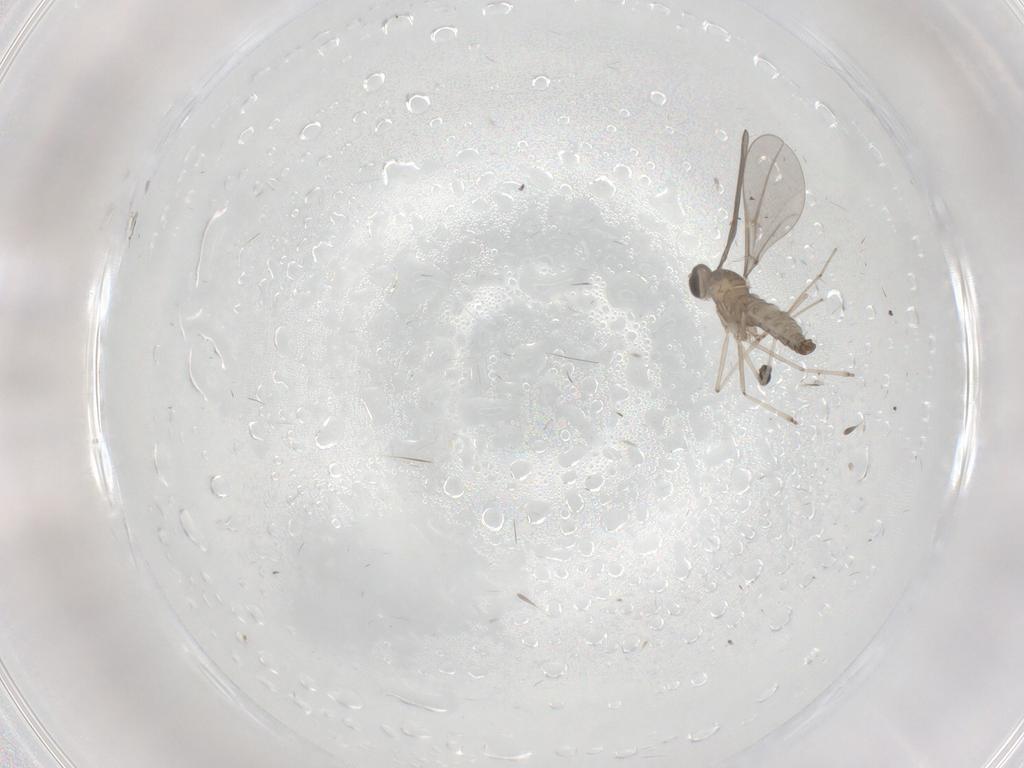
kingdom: Animalia
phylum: Arthropoda
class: Insecta
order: Diptera
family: Cecidomyiidae
